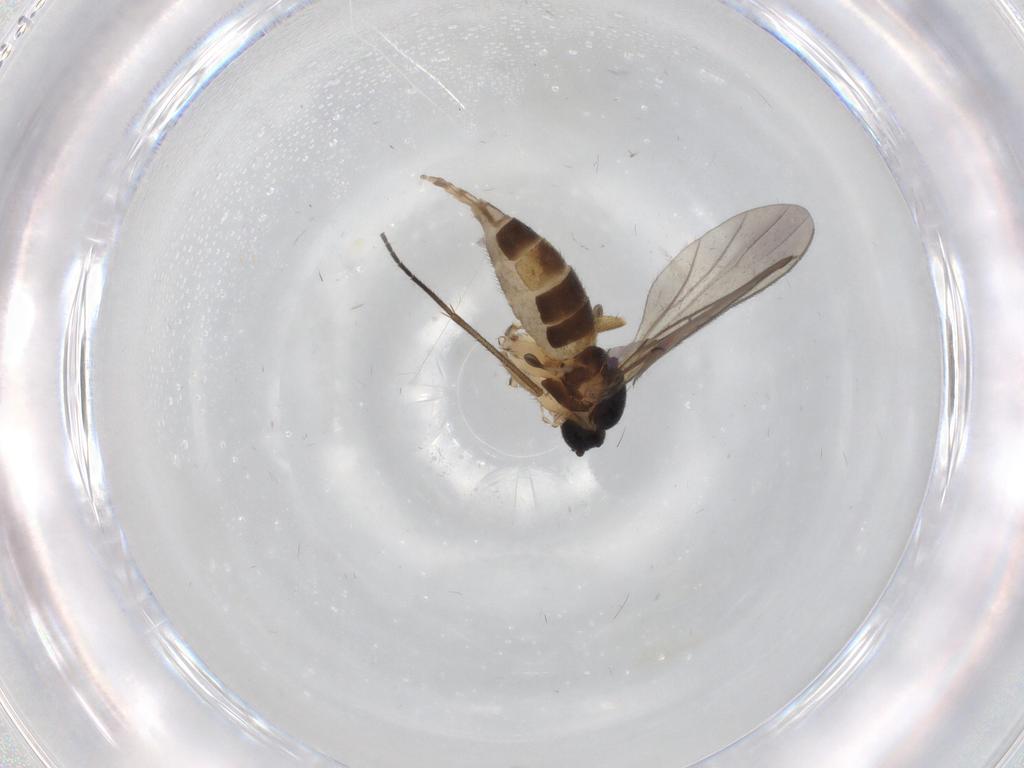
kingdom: Animalia
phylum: Arthropoda
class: Insecta
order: Diptera
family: Sciaridae
